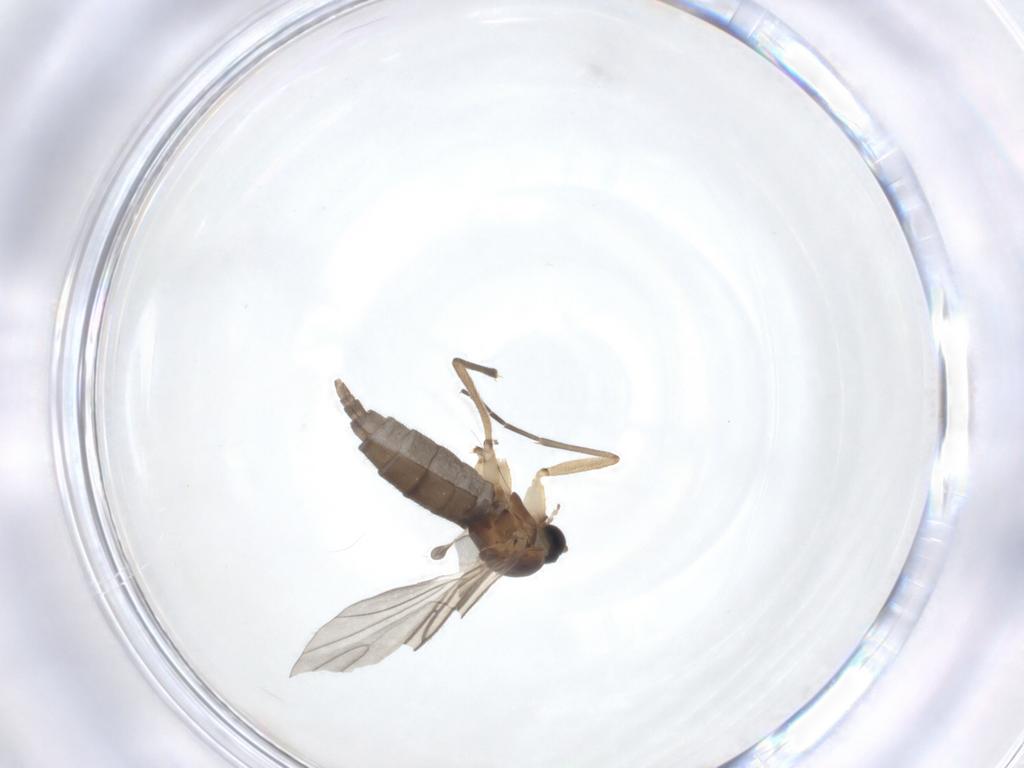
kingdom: Animalia
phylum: Arthropoda
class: Insecta
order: Diptera
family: Sciaridae
